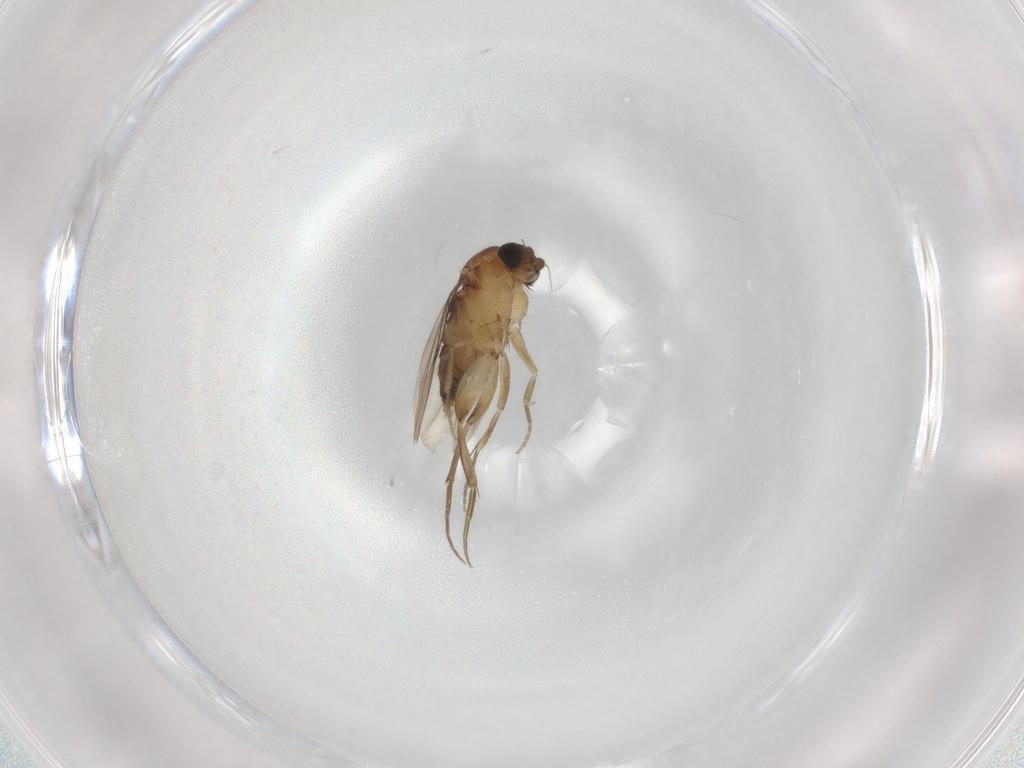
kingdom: Animalia
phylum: Arthropoda
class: Insecta
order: Diptera
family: Phoridae
